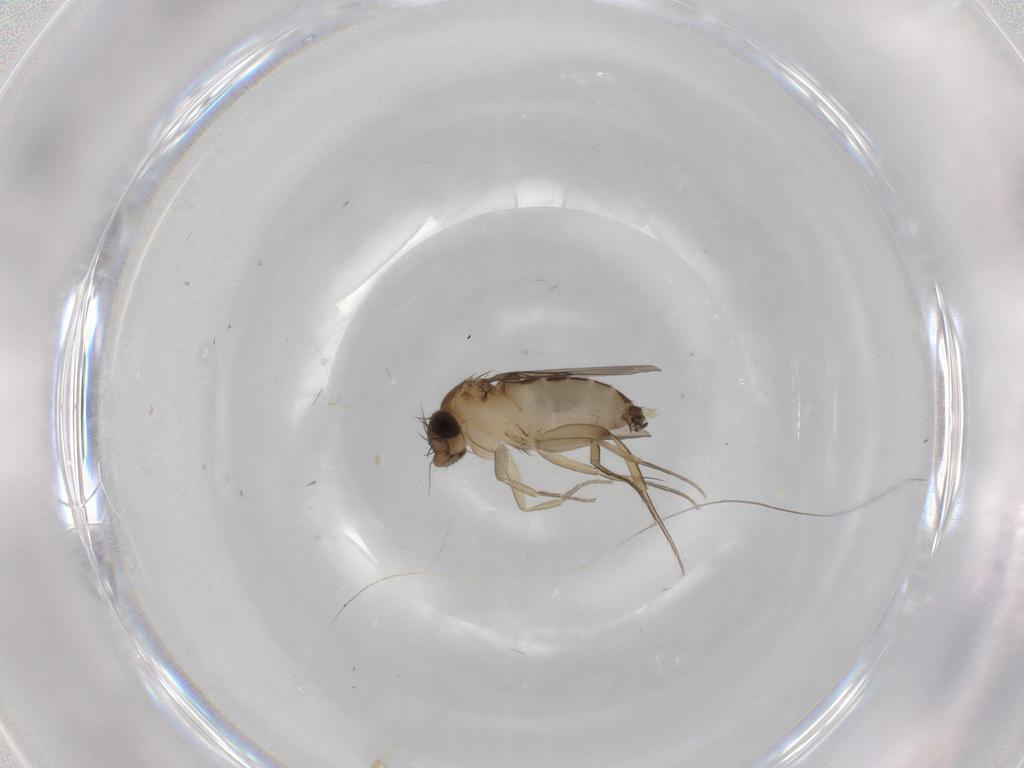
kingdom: Animalia
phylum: Arthropoda
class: Insecta
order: Diptera
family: Phoridae
